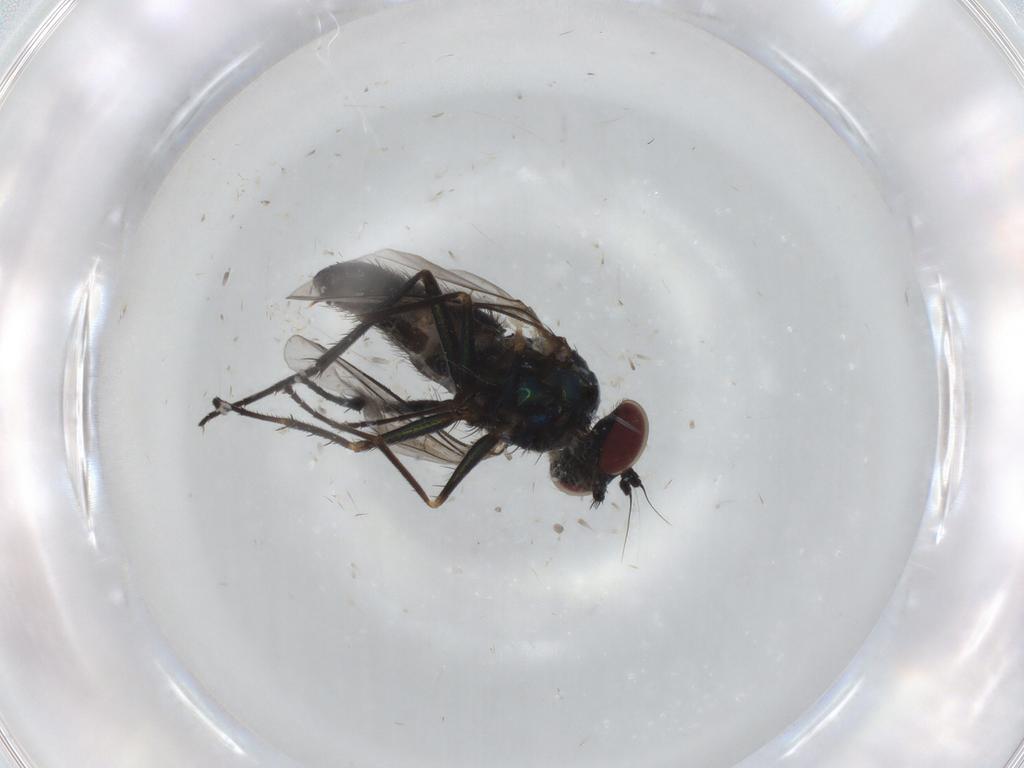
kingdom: Animalia
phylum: Arthropoda
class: Insecta
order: Diptera
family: Dolichopodidae
